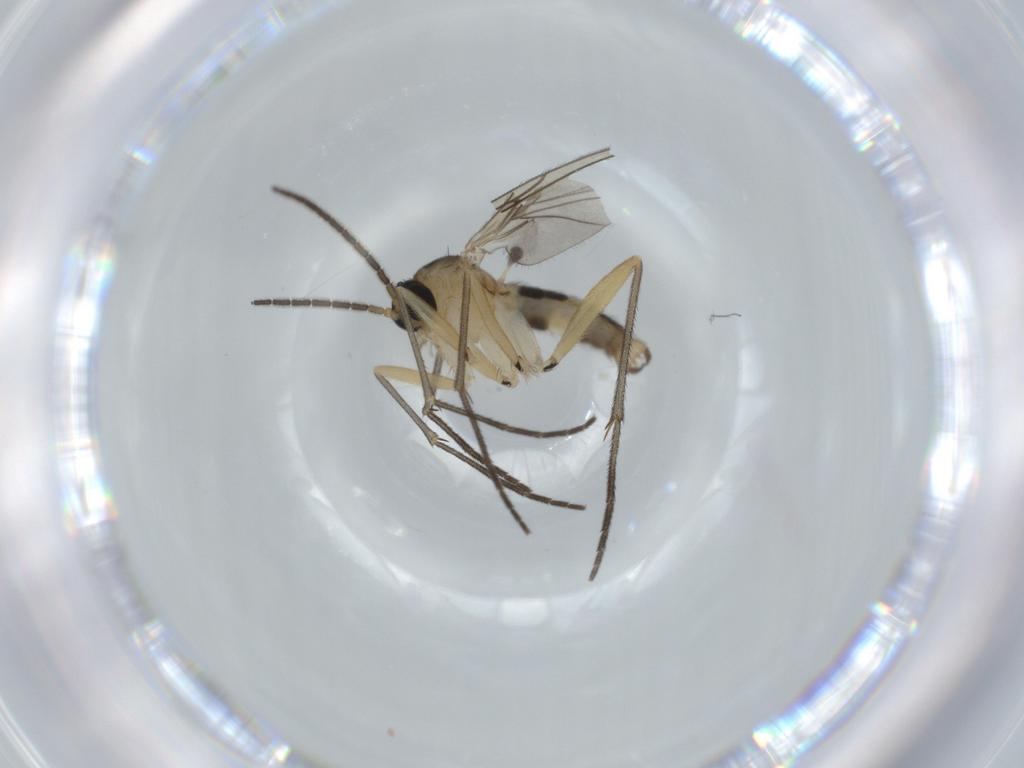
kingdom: Animalia
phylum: Arthropoda
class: Insecta
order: Diptera
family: Sciaridae
